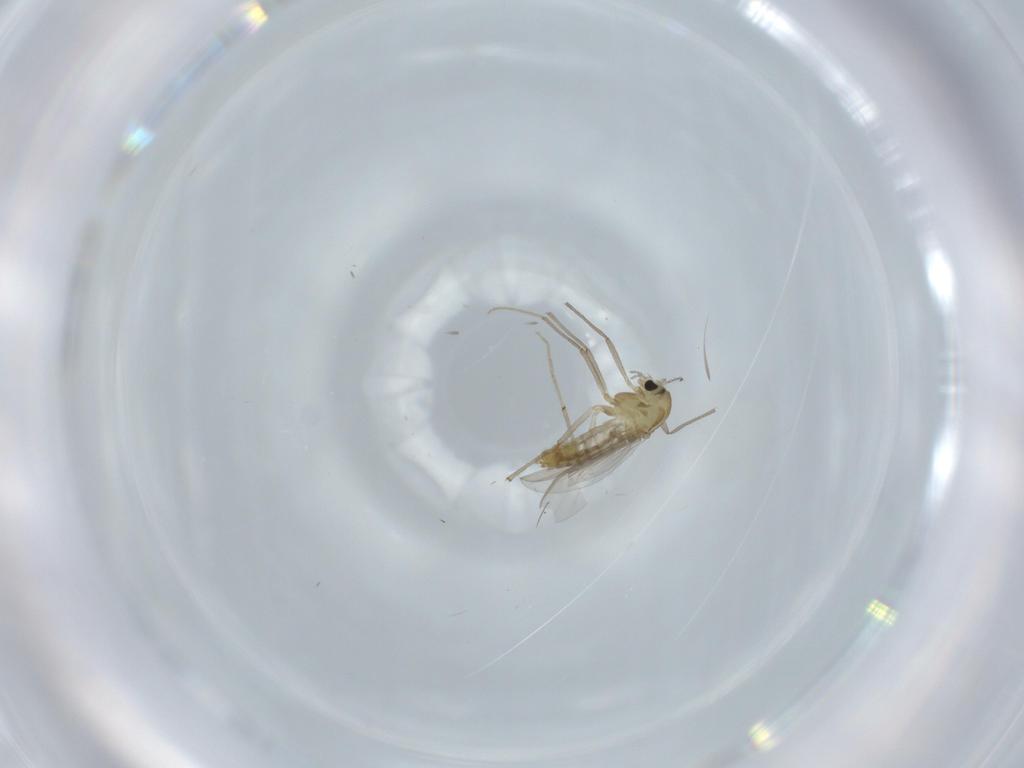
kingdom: Animalia
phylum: Arthropoda
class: Insecta
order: Diptera
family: Chironomidae
